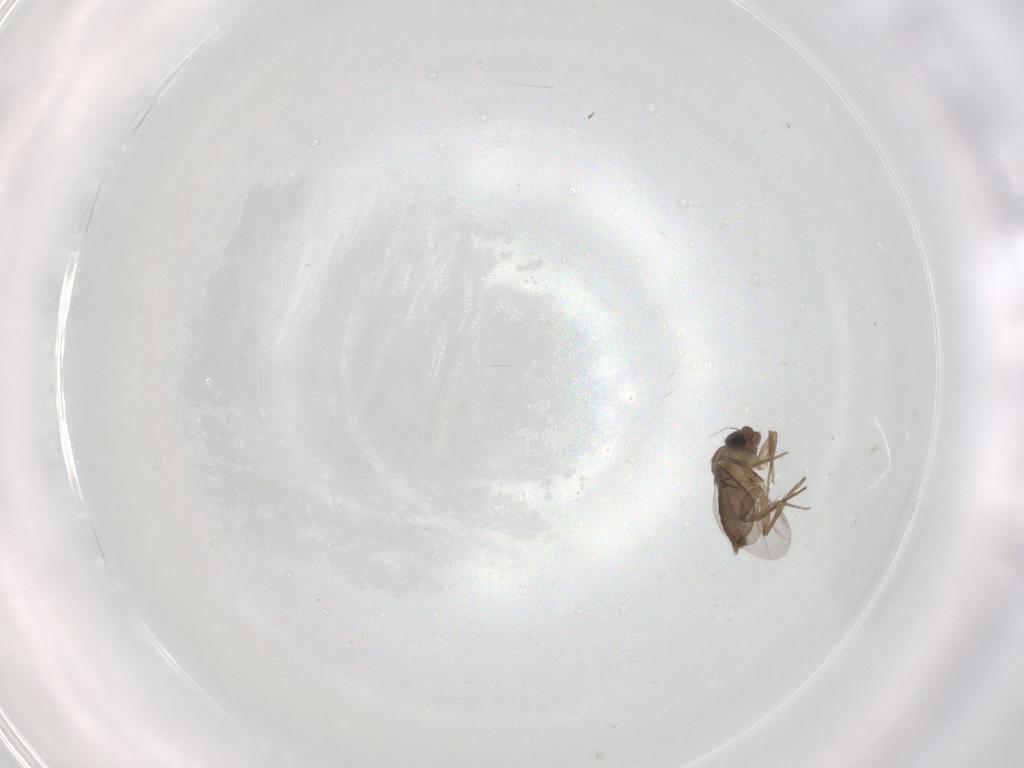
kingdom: Animalia
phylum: Arthropoda
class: Insecta
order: Diptera
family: Phoridae
